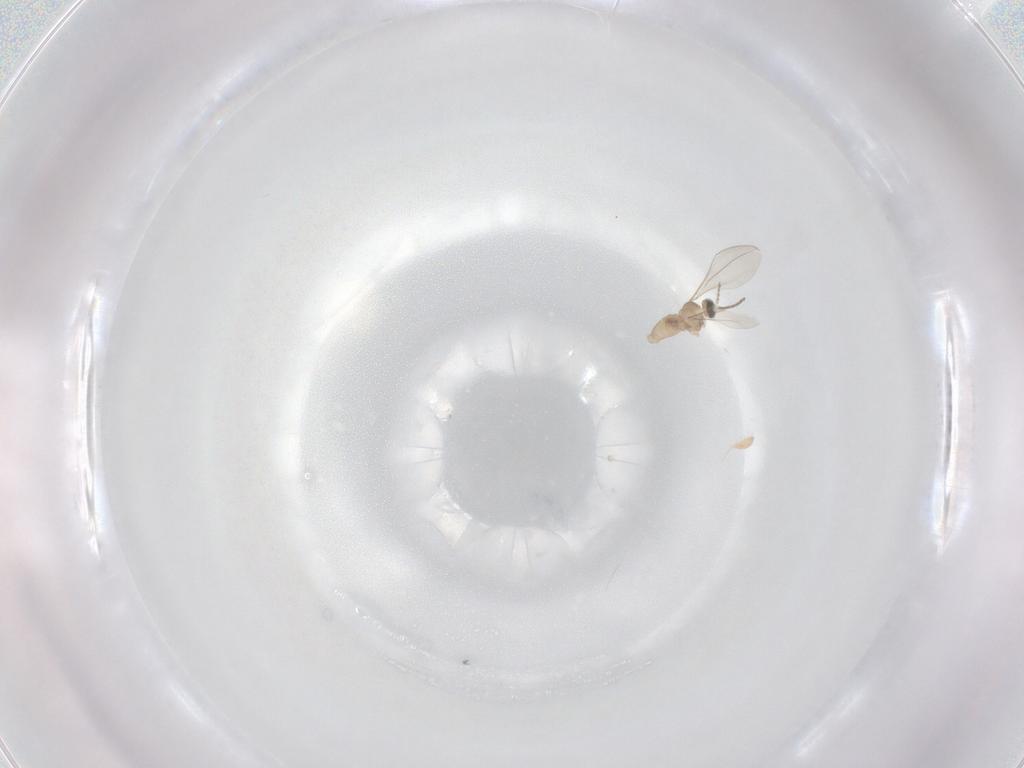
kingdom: Animalia
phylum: Arthropoda
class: Insecta
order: Diptera
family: Cecidomyiidae
